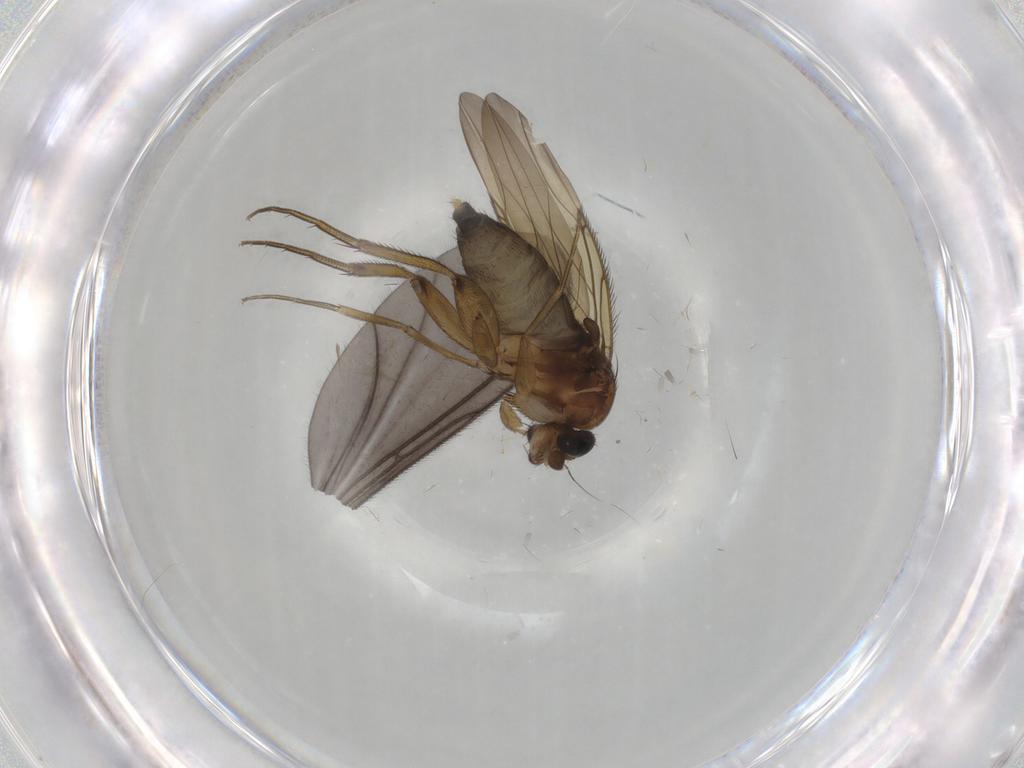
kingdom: Animalia
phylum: Arthropoda
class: Insecta
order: Diptera
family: Phoridae
